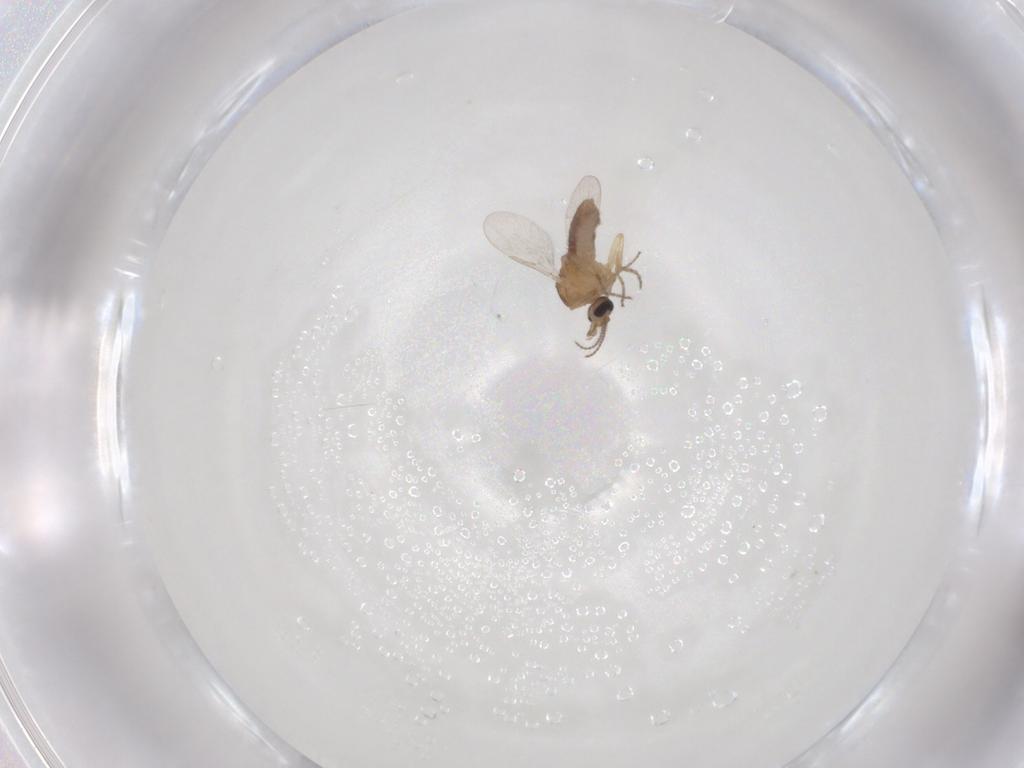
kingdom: Animalia
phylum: Arthropoda
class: Insecta
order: Diptera
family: Ceratopogonidae
